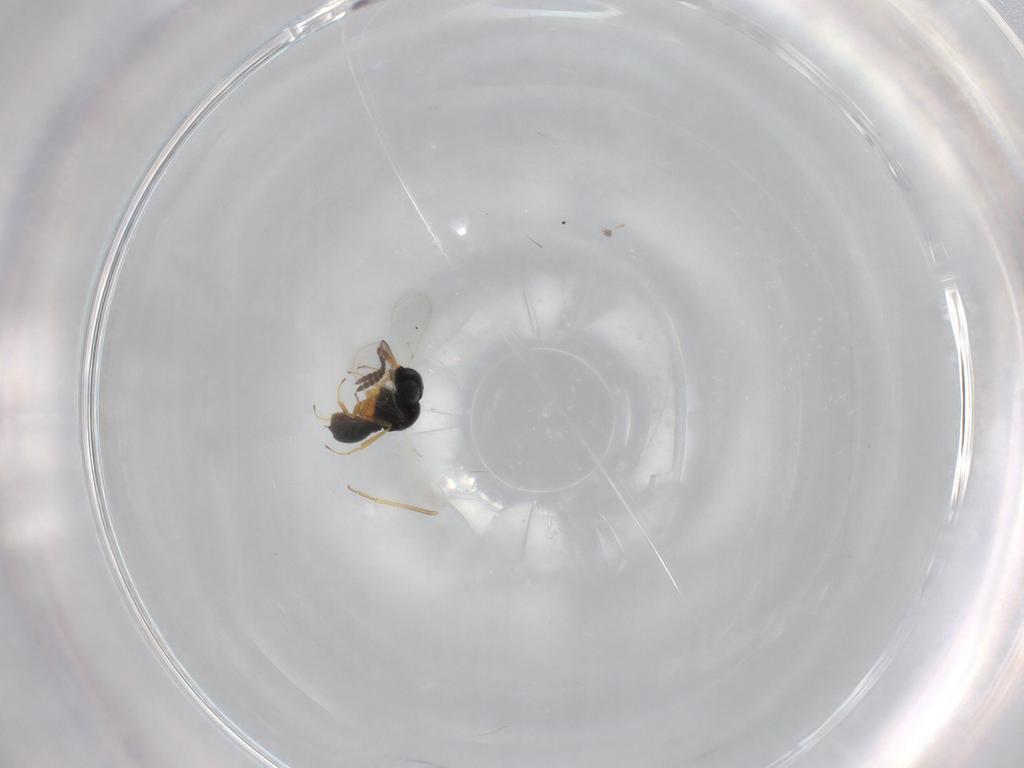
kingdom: Animalia
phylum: Arthropoda
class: Insecta
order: Hymenoptera
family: Scelionidae
